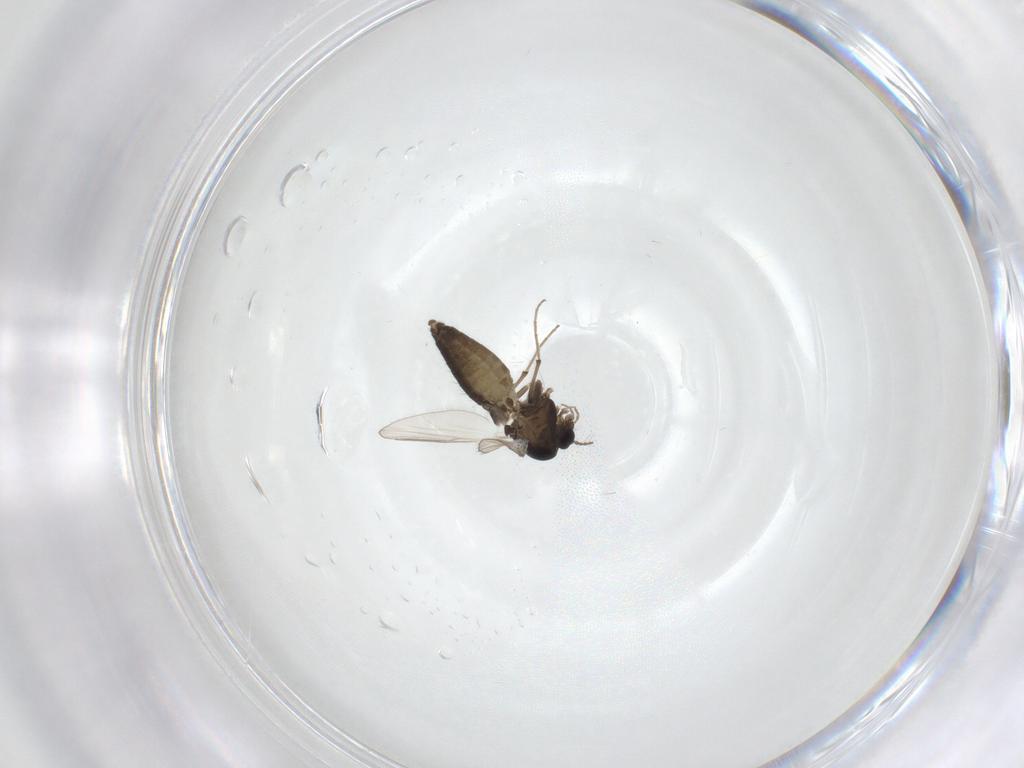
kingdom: Animalia
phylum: Arthropoda
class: Insecta
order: Diptera
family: Chironomidae
